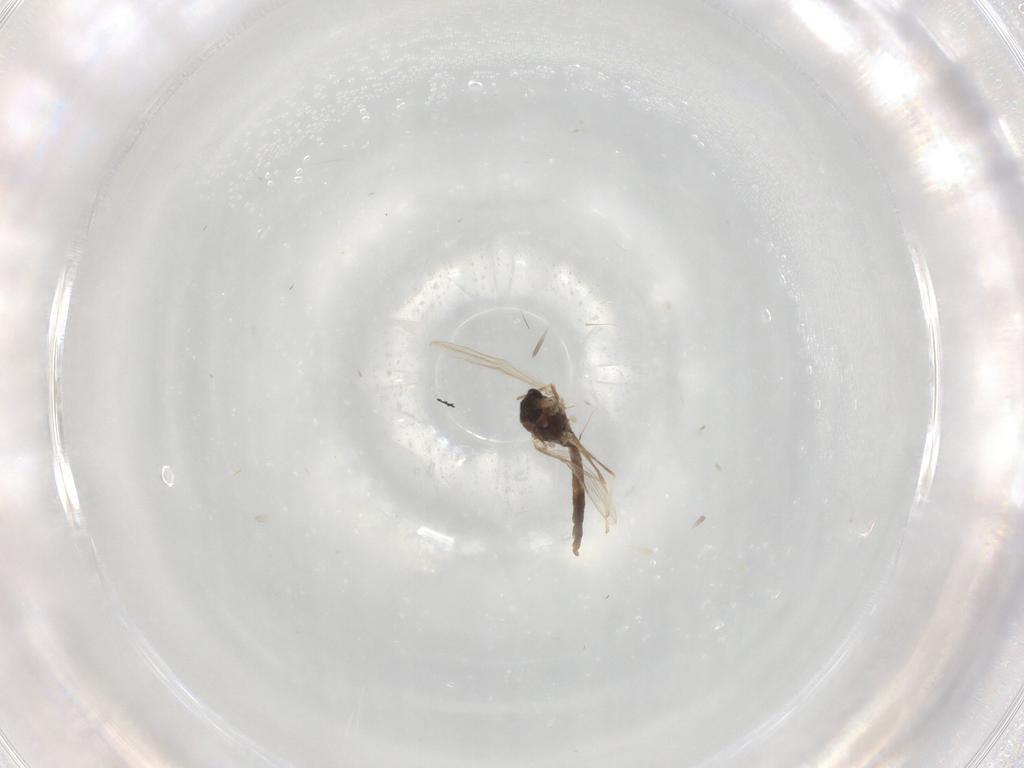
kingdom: Animalia
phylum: Arthropoda
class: Insecta
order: Diptera
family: Chironomidae
